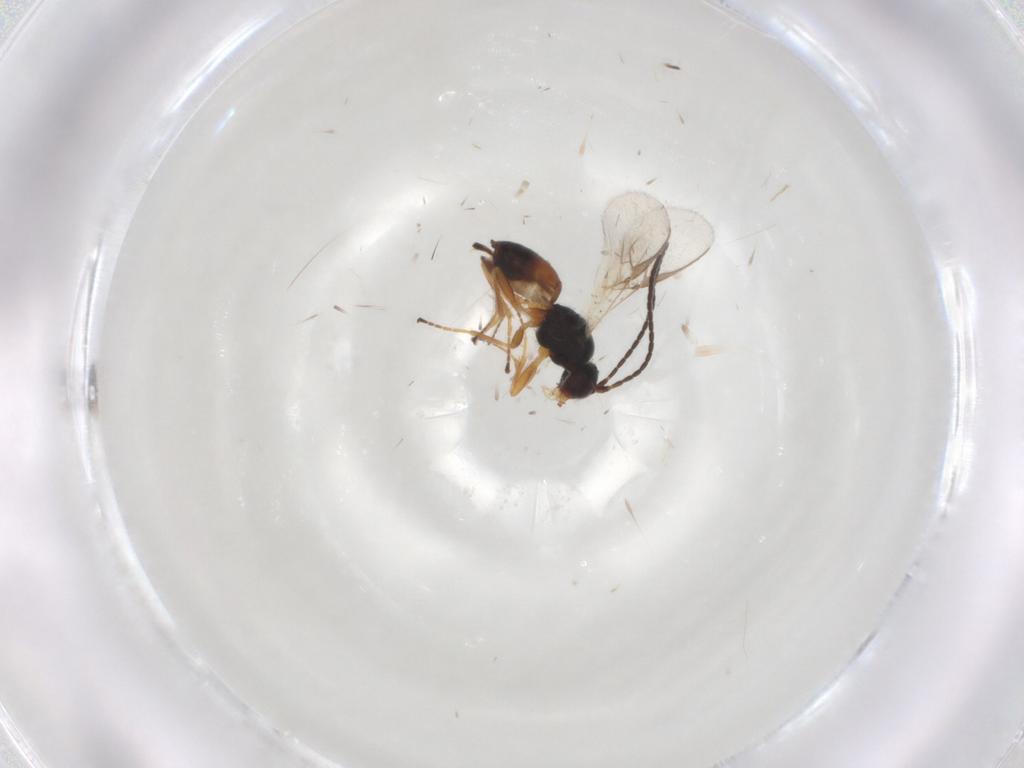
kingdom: Animalia
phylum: Arthropoda
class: Insecta
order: Hymenoptera
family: Braconidae
